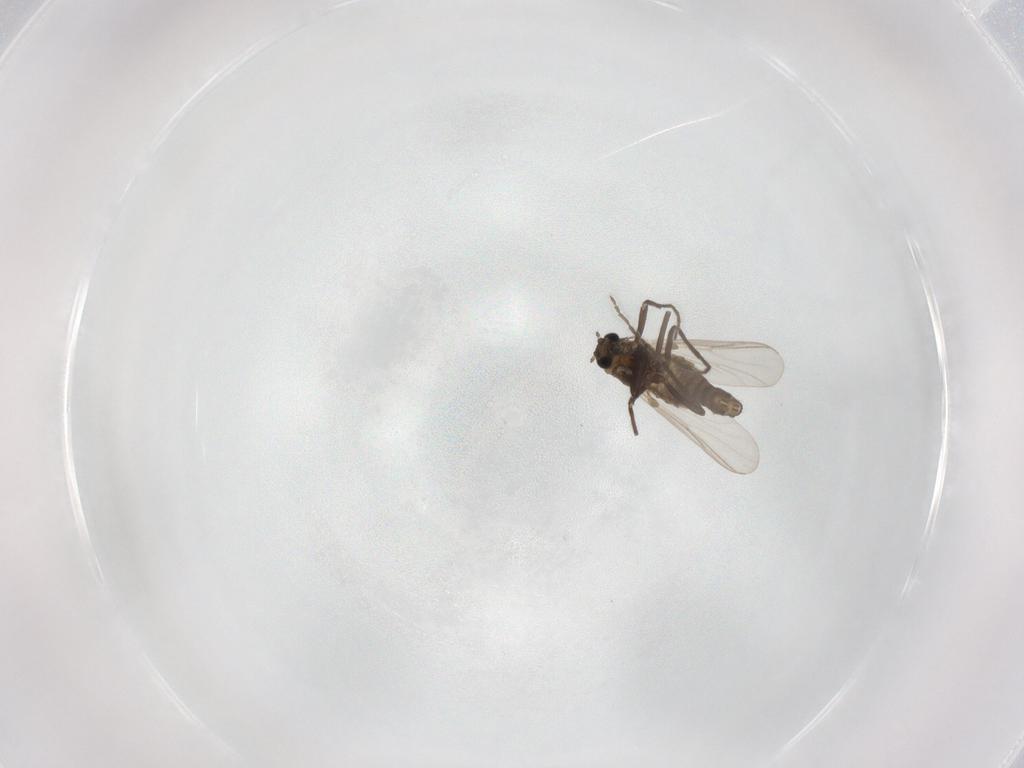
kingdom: Animalia
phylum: Arthropoda
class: Insecta
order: Diptera
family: Chironomidae
